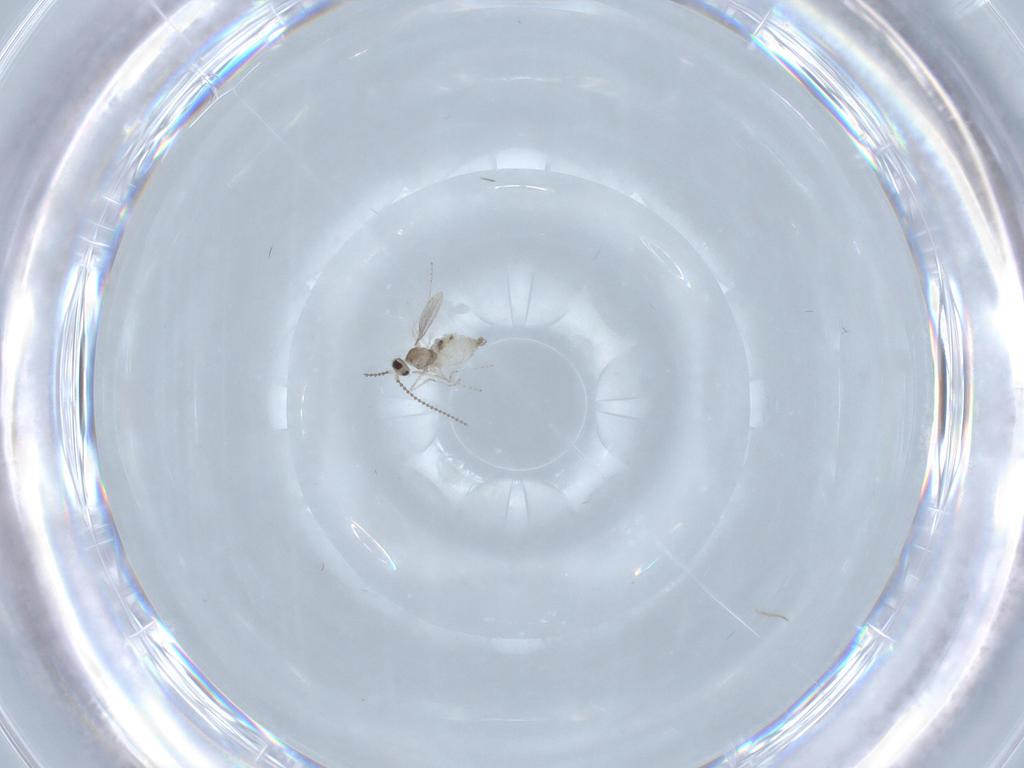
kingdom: Animalia
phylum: Arthropoda
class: Insecta
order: Diptera
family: Cecidomyiidae
